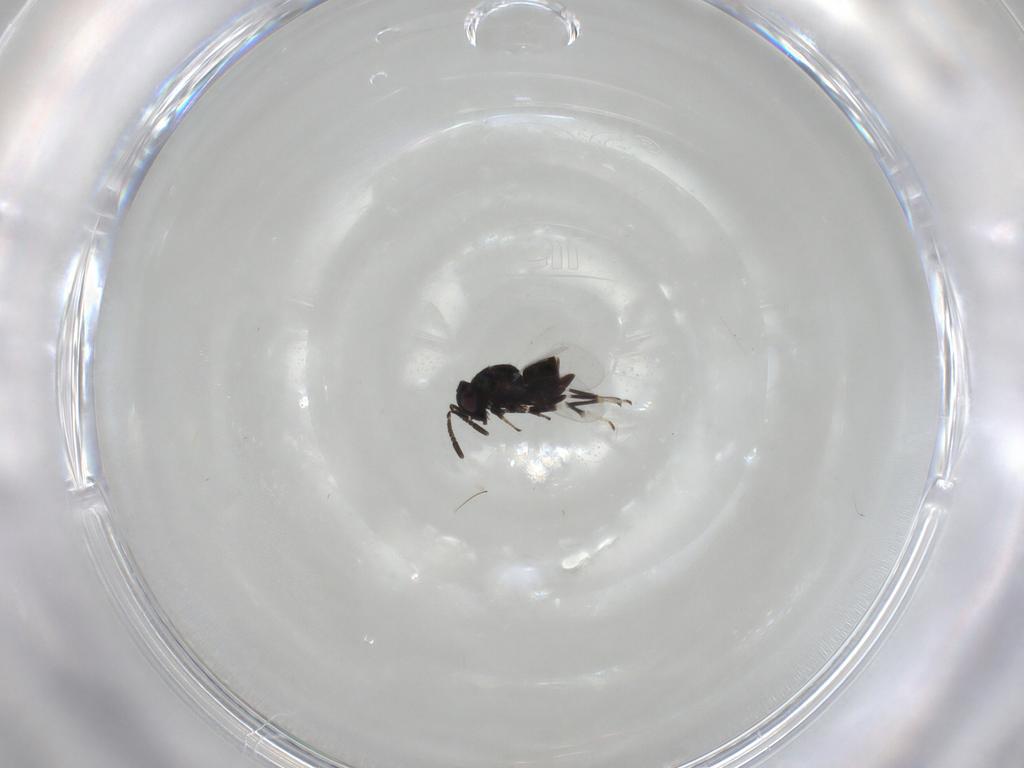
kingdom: Animalia
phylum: Arthropoda
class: Insecta
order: Hymenoptera
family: Apidae
